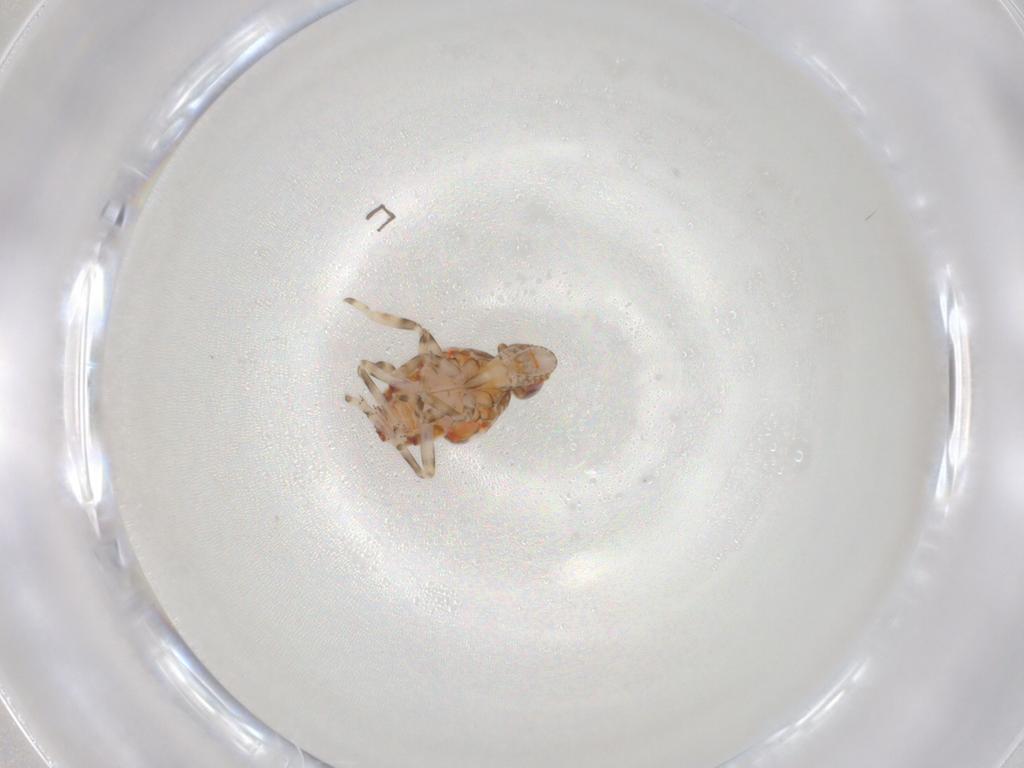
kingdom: Animalia
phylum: Arthropoda
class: Insecta
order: Hemiptera
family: Tropiduchidae
